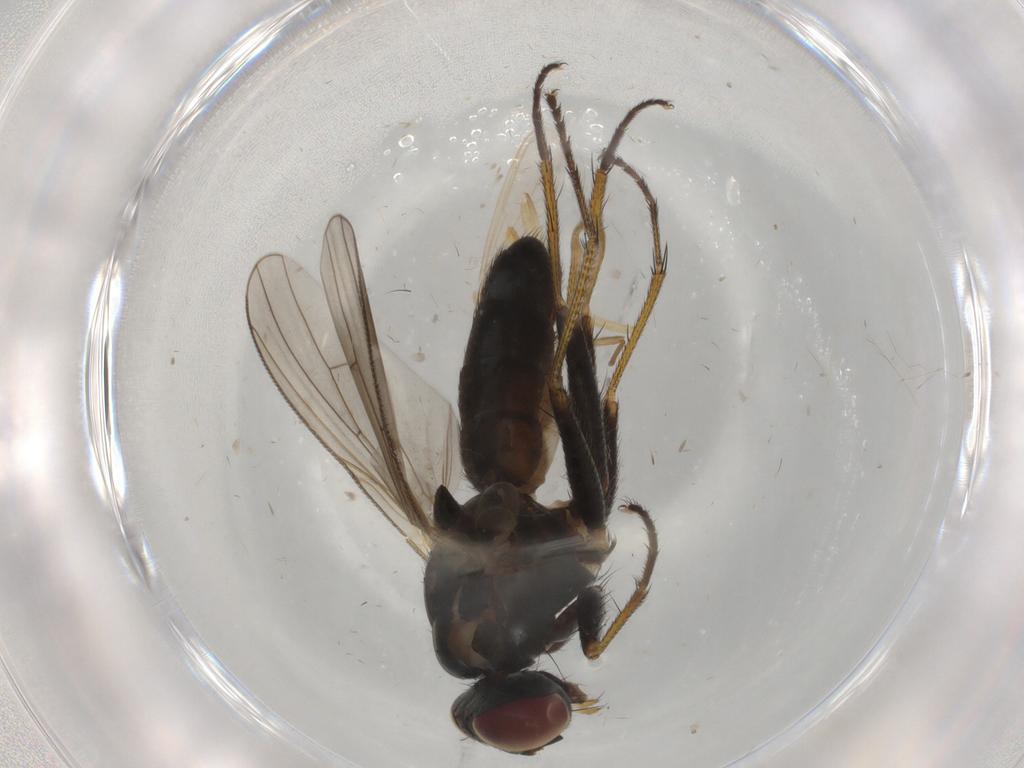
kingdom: Animalia
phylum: Arthropoda
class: Insecta
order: Diptera
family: Muscidae
